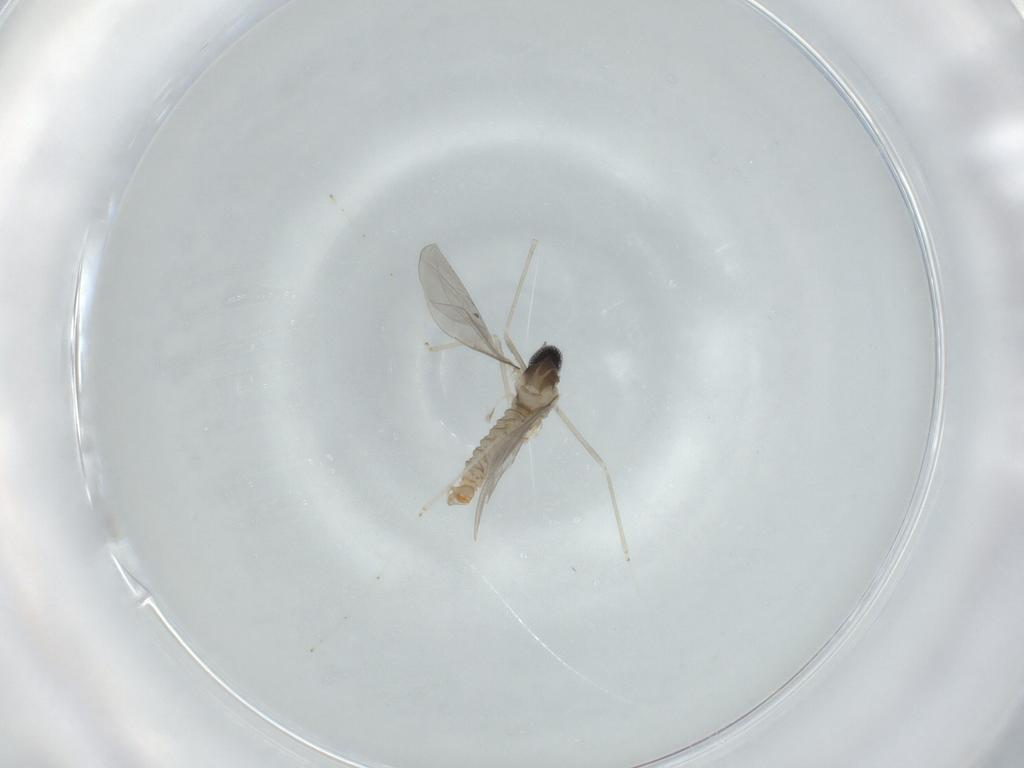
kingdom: Animalia
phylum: Arthropoda
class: Insecta
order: Diptera
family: Cecidomyiidae
